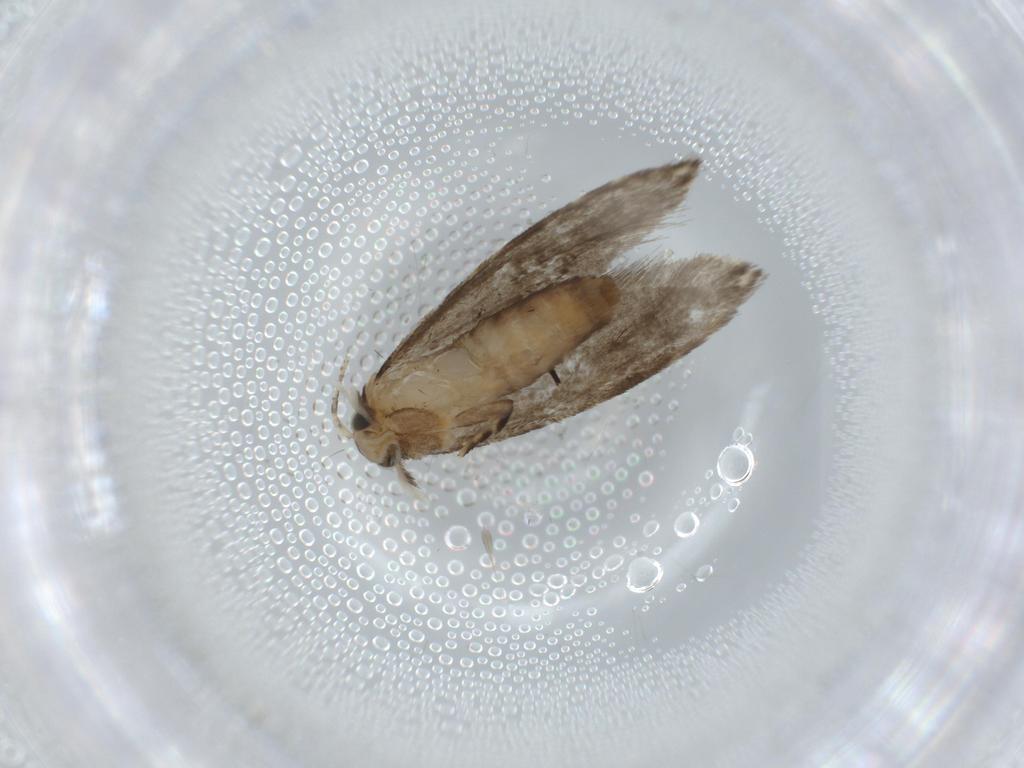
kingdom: Animalia
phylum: Arthropoda
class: Insecta
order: Lepidoptera
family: Tineidae
